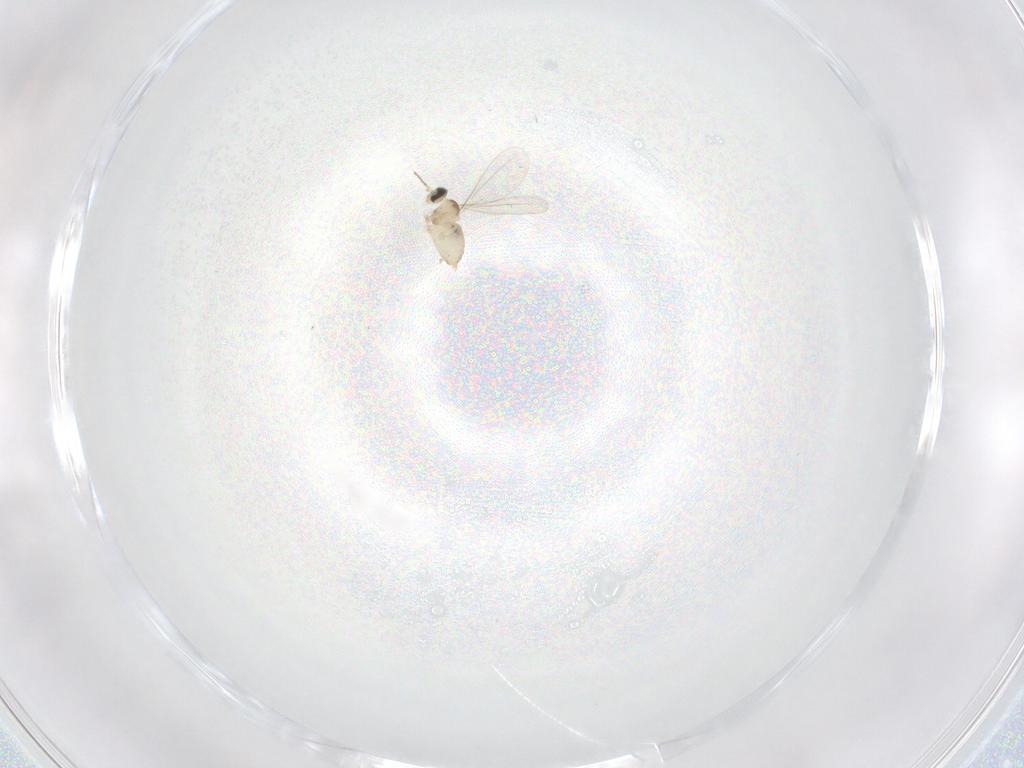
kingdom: Animalia
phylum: Arthropoda
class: Insecta
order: Diptera
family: Cecidomyiidae
